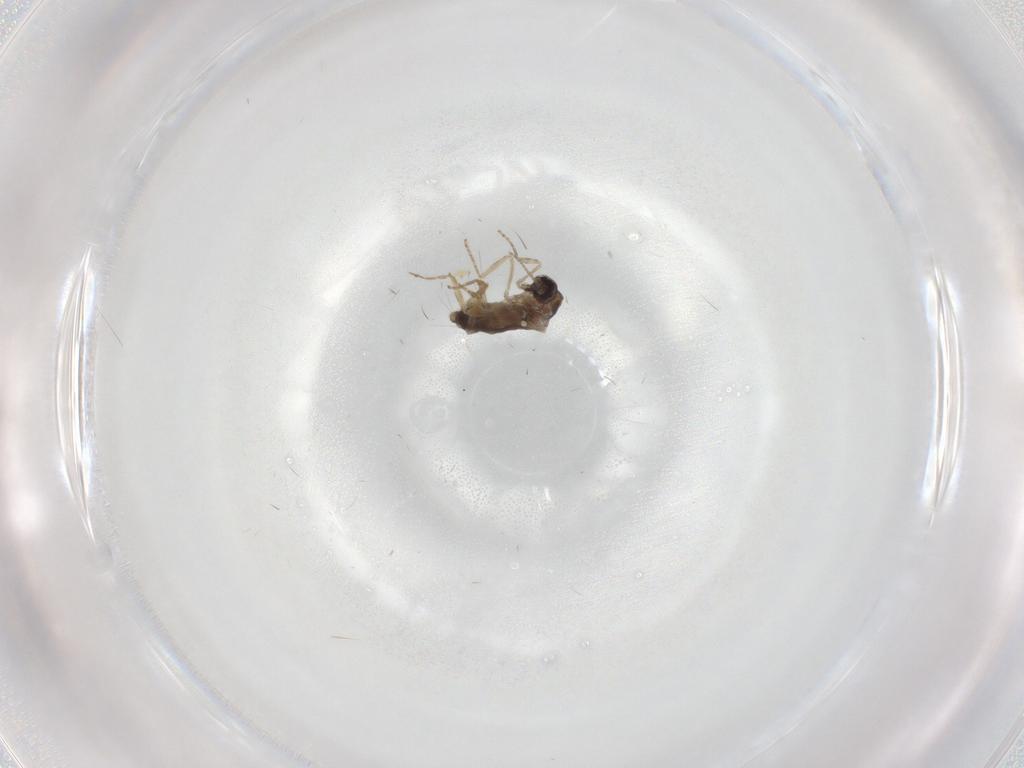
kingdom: Animalia
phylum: Arthropoda
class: Insecta
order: Diptera
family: Ceratopogonidae
